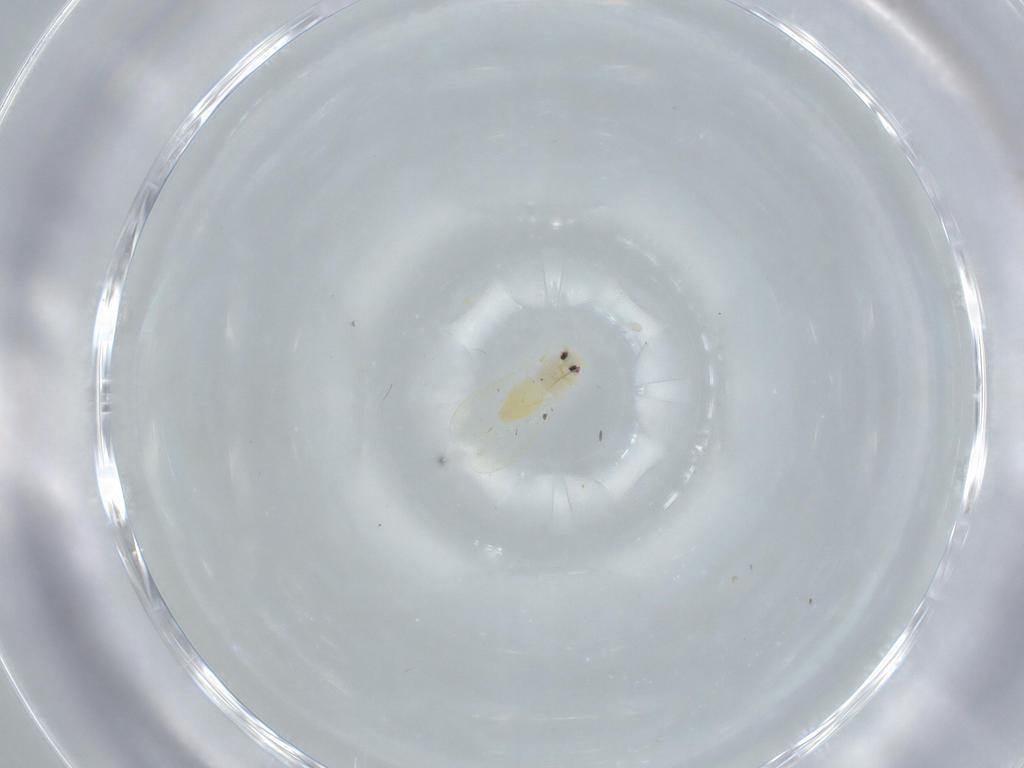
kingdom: Animalia
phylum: Arthropoda
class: Insecta
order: Hemiptera
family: Aleyrodidae
